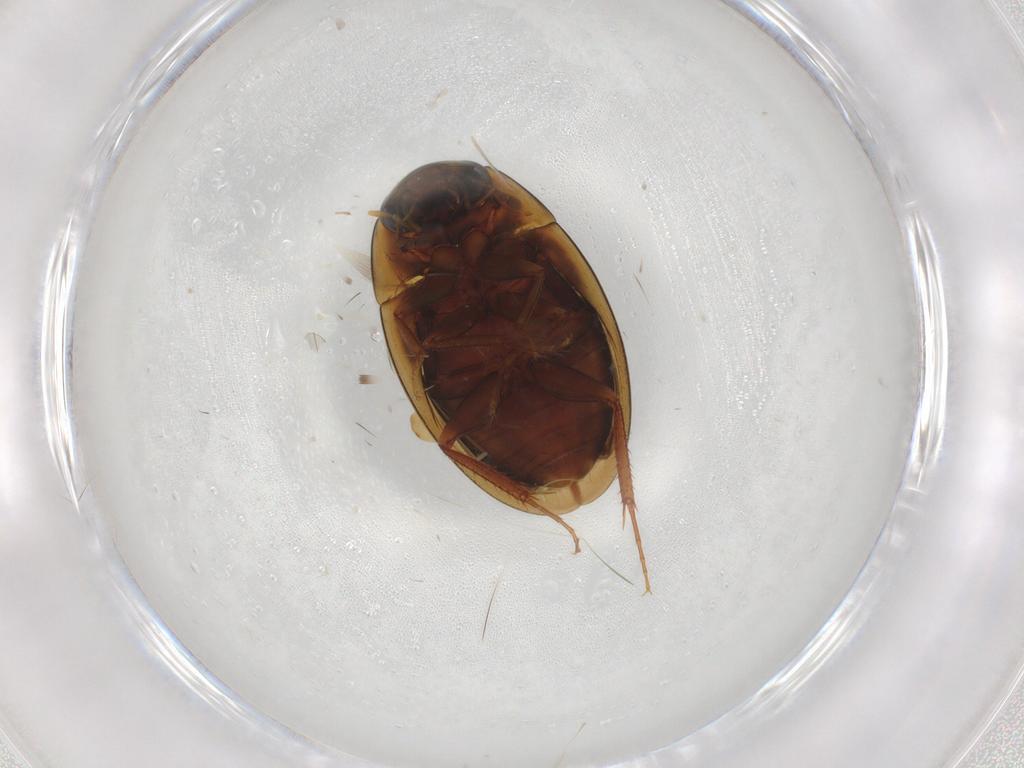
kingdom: Animalia
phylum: Arthropoda
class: Insecta
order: Coleoptera
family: Hydrophilidae
